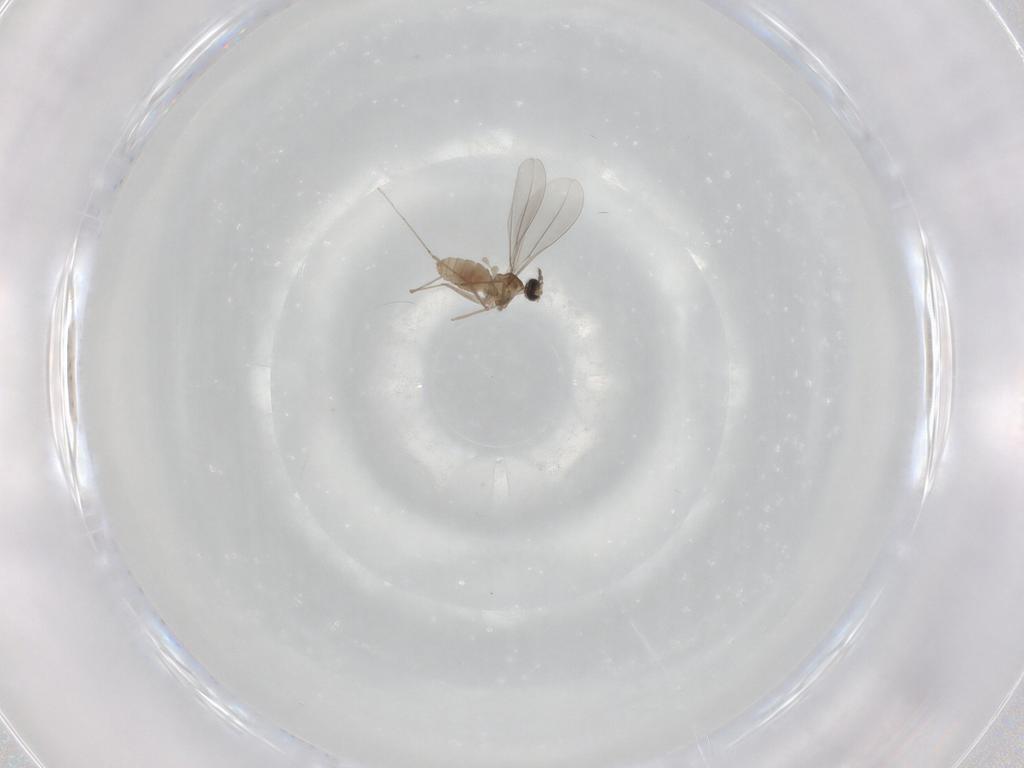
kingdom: Animalia
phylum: Arthropoda
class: Insecta
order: Diptera
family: Cecidomyiidae
